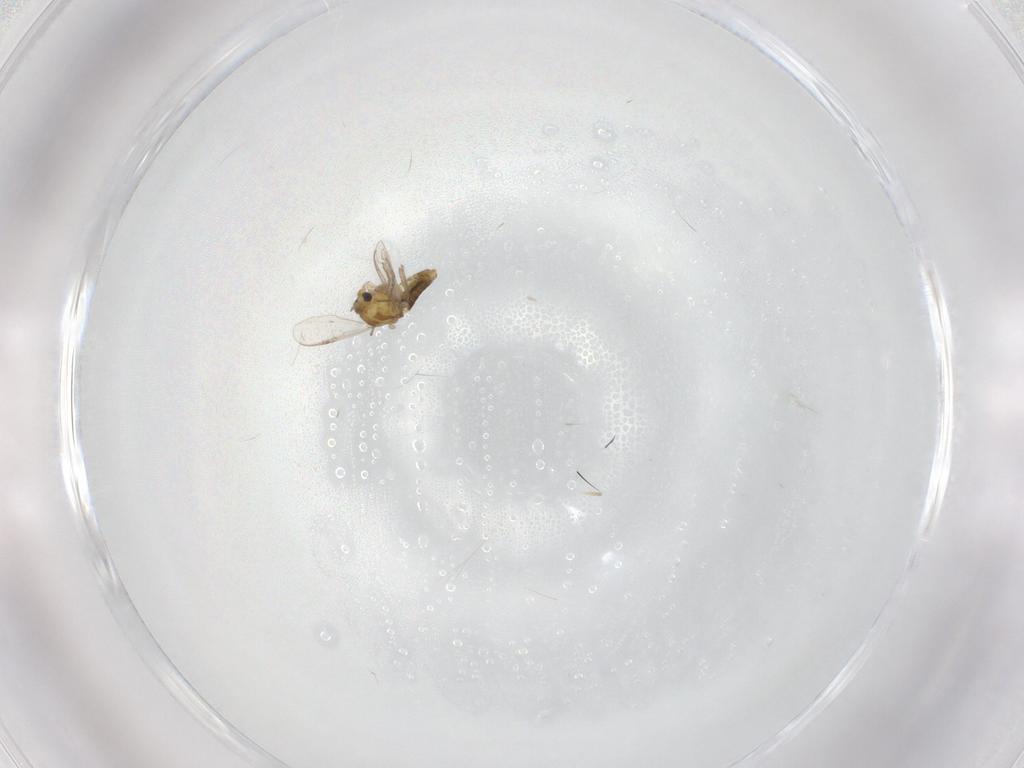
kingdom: Animalia
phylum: Arthropoda
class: Insecta
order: Diptera
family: Chironomidae
